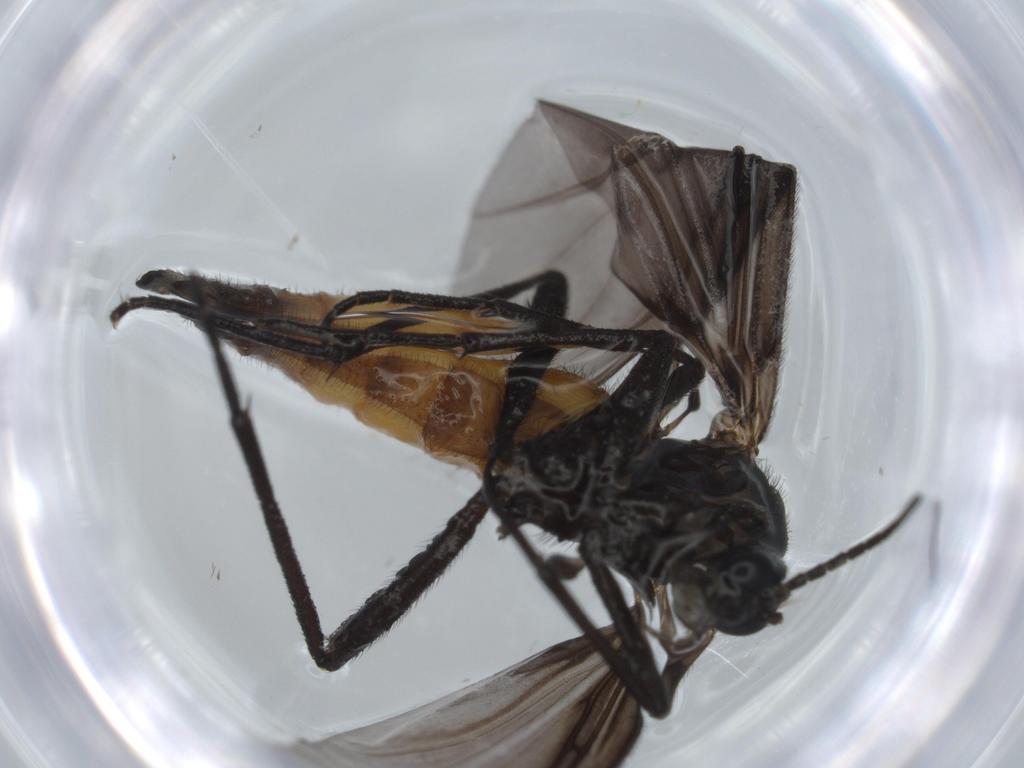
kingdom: Animalia
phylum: Arthropoda
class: Insecta
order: Diptera
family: Cecidomyiidae
